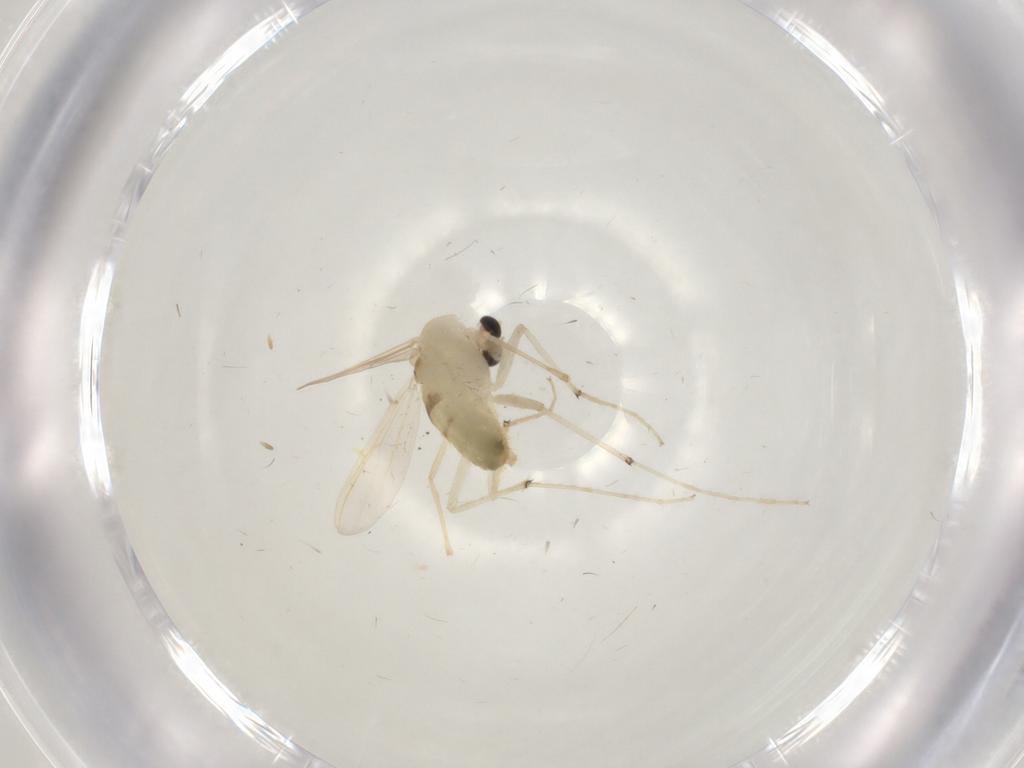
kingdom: Animalia
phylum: Arthropoda
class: Insecta
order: Diptera
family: Chironomidae
